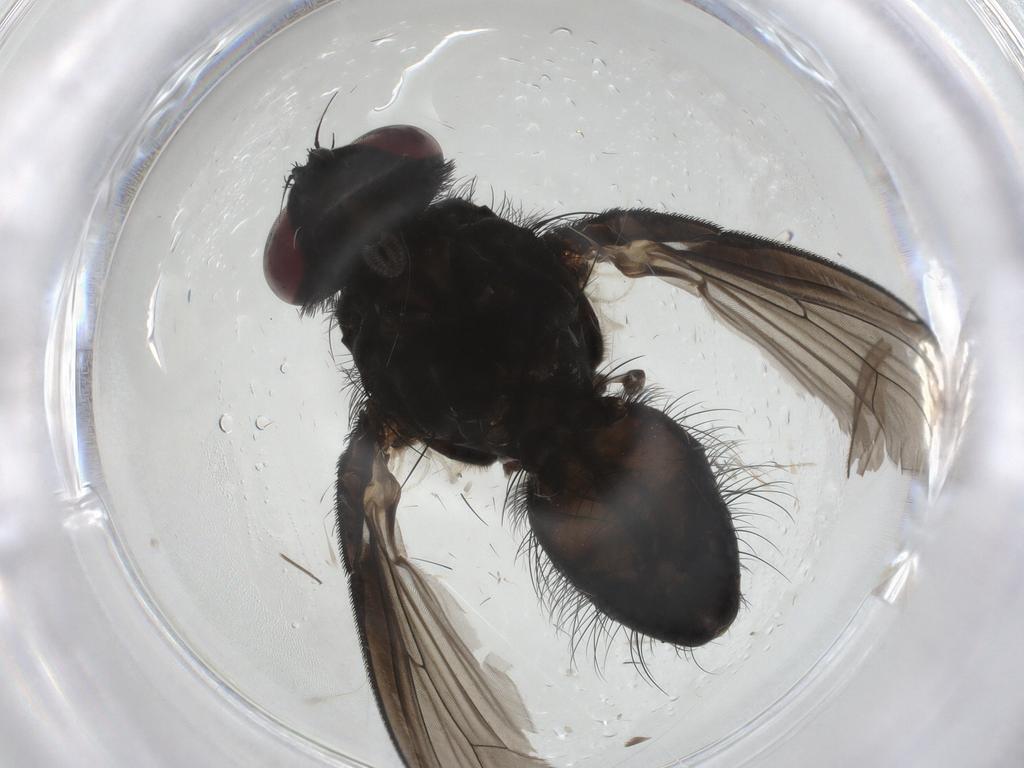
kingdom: Animalia
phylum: Arthropoda
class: Insecta
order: Diptera
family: Fannia
